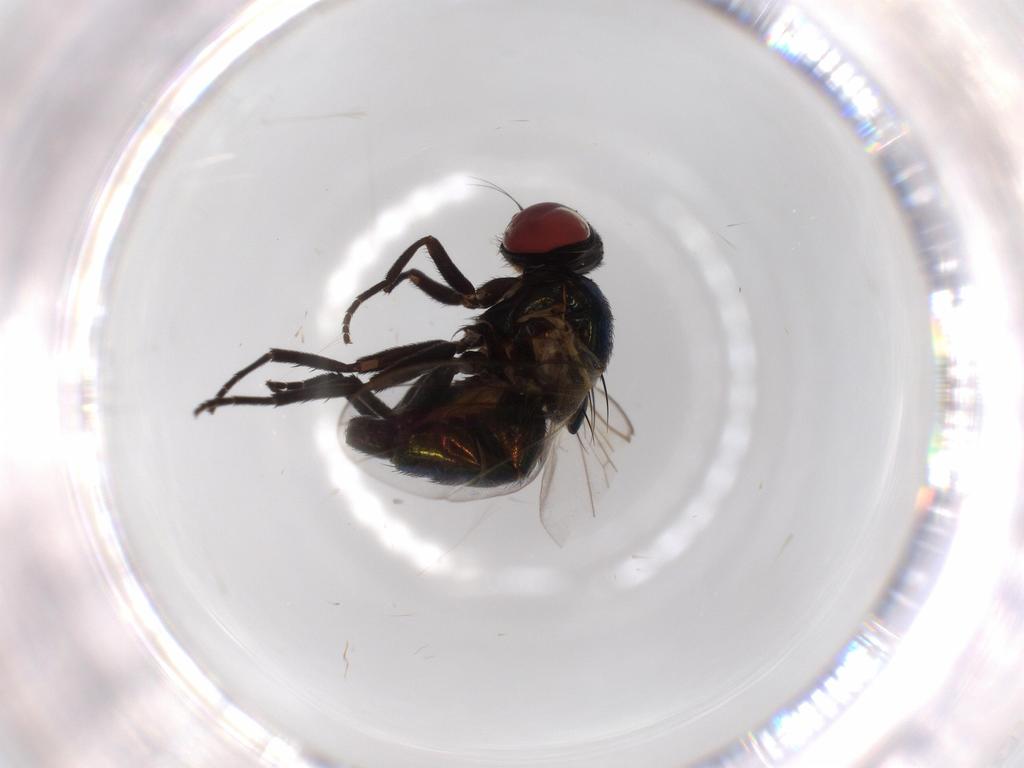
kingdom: Animalia
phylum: Arthropoda
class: Insecta
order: Diptera
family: Agromyzidae
